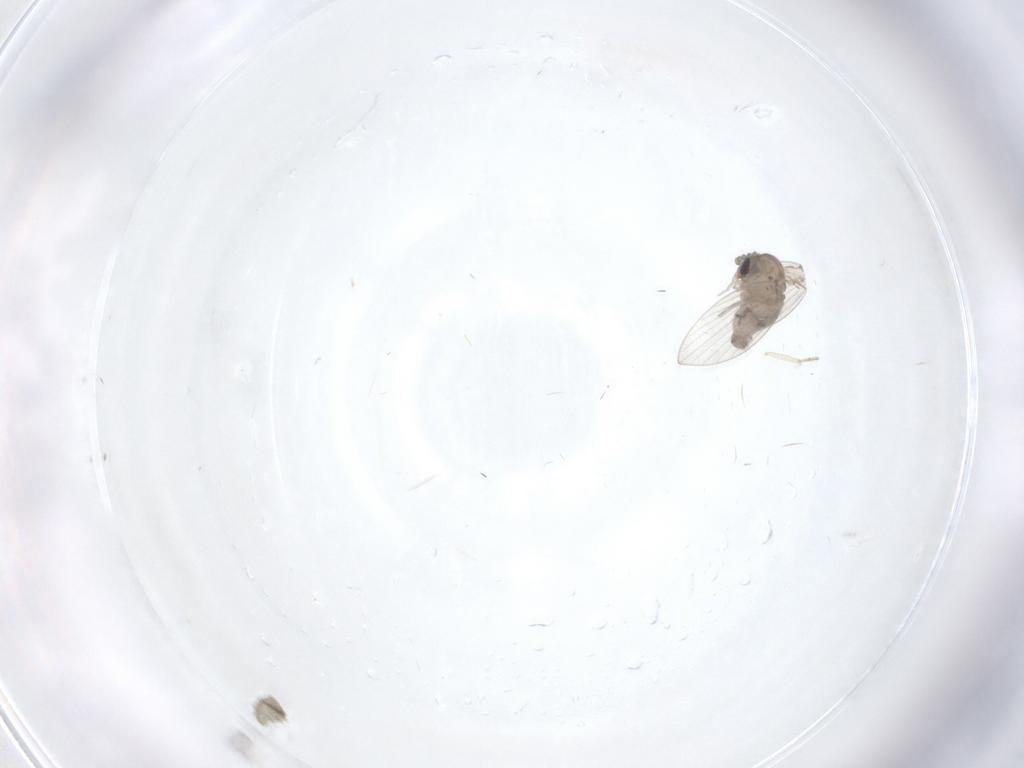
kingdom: Animalia
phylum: Arthropoda
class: Insecta
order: Diptera
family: Psychodidae
